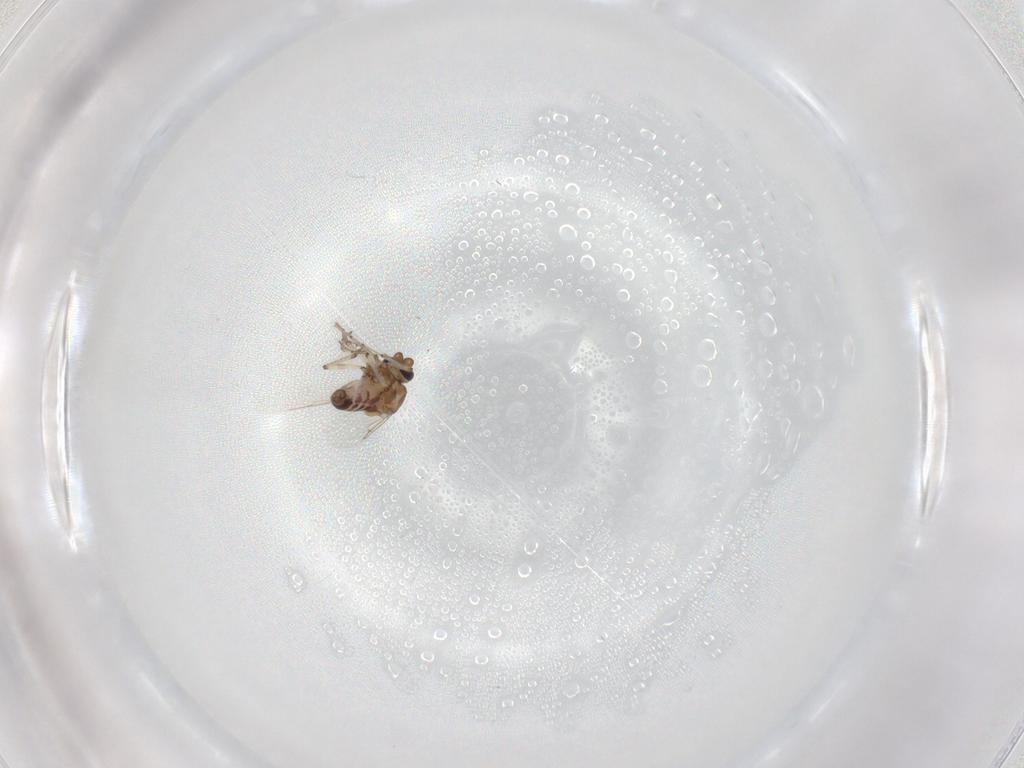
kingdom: Animalia
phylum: Arthropoda
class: Insecta
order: Diptera
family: Ceratopogonidae
